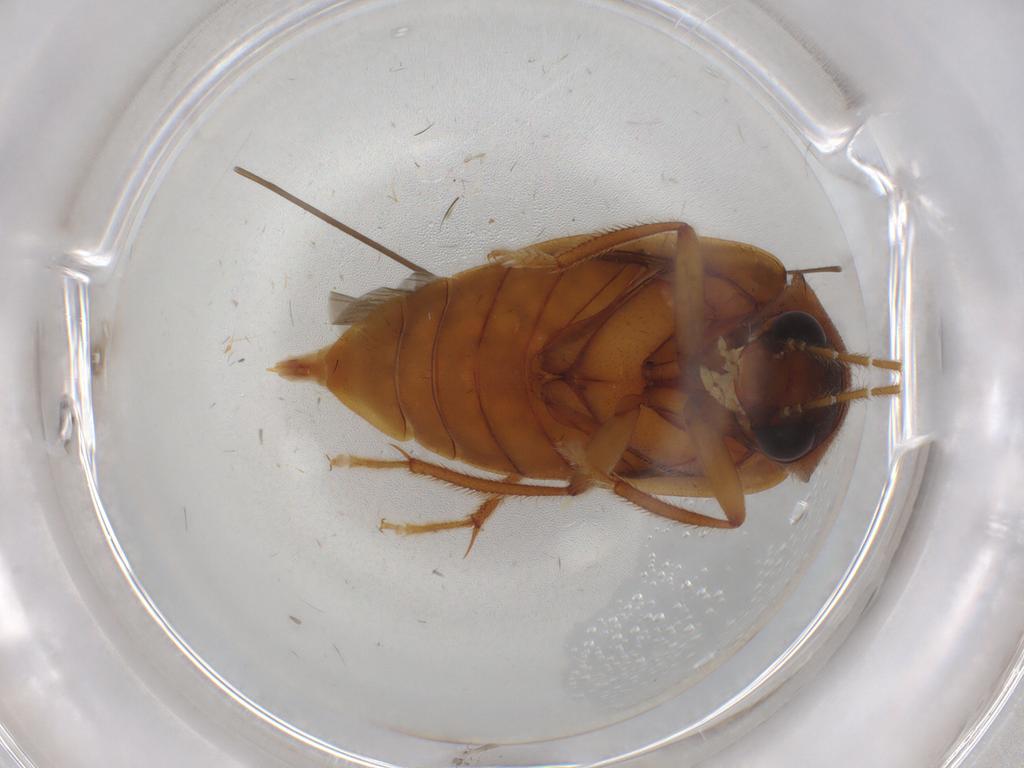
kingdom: Animalia
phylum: Arthropoda
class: Insecta
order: Coleoptera
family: Ptilodactylidae
